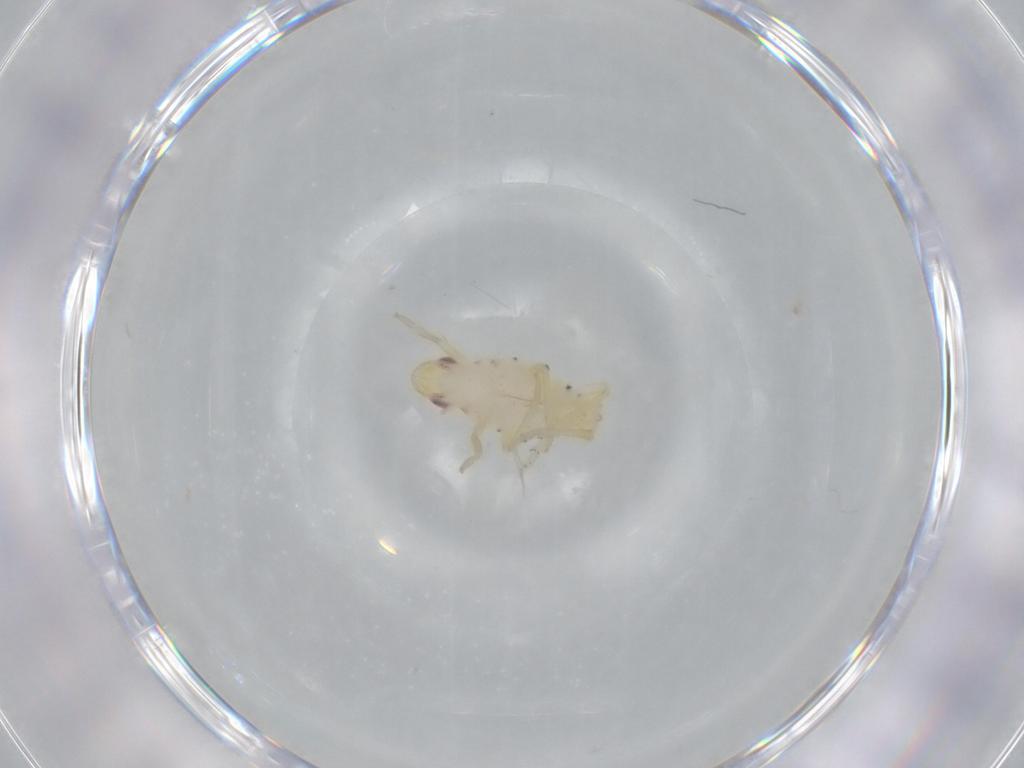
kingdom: Animalia
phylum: Arthropoda
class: Insecta
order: Hemiptera
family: Tropiduchidae
